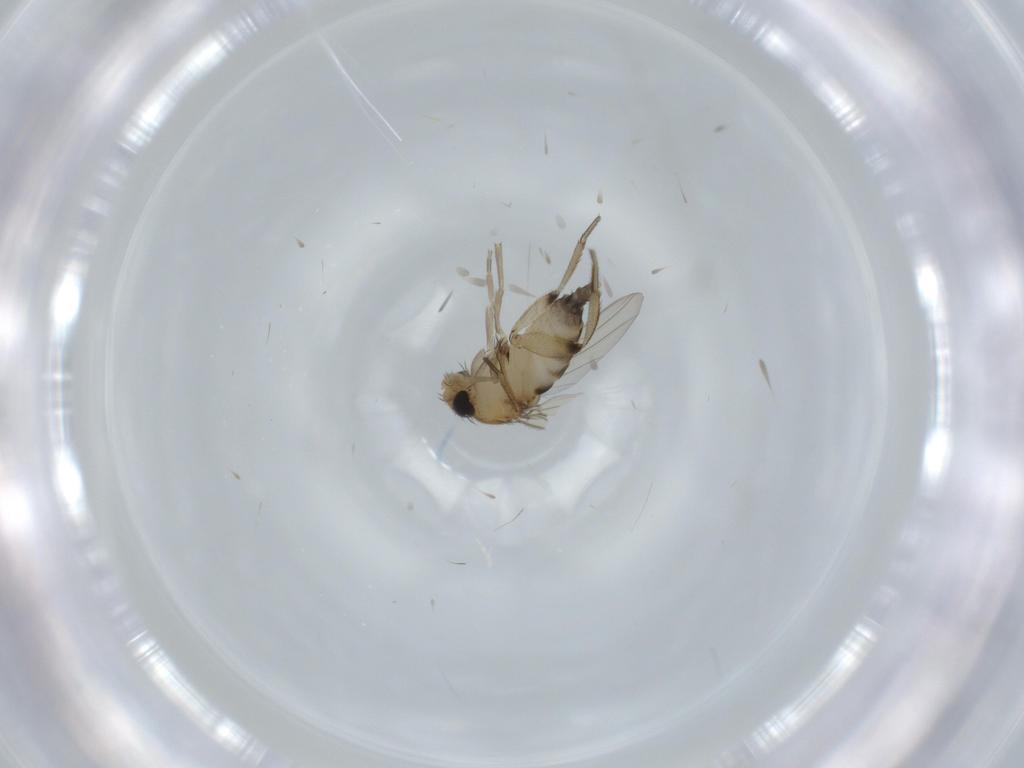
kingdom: Animalia
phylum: Arthropoda
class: Insecta
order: Diptera
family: Phoridae
